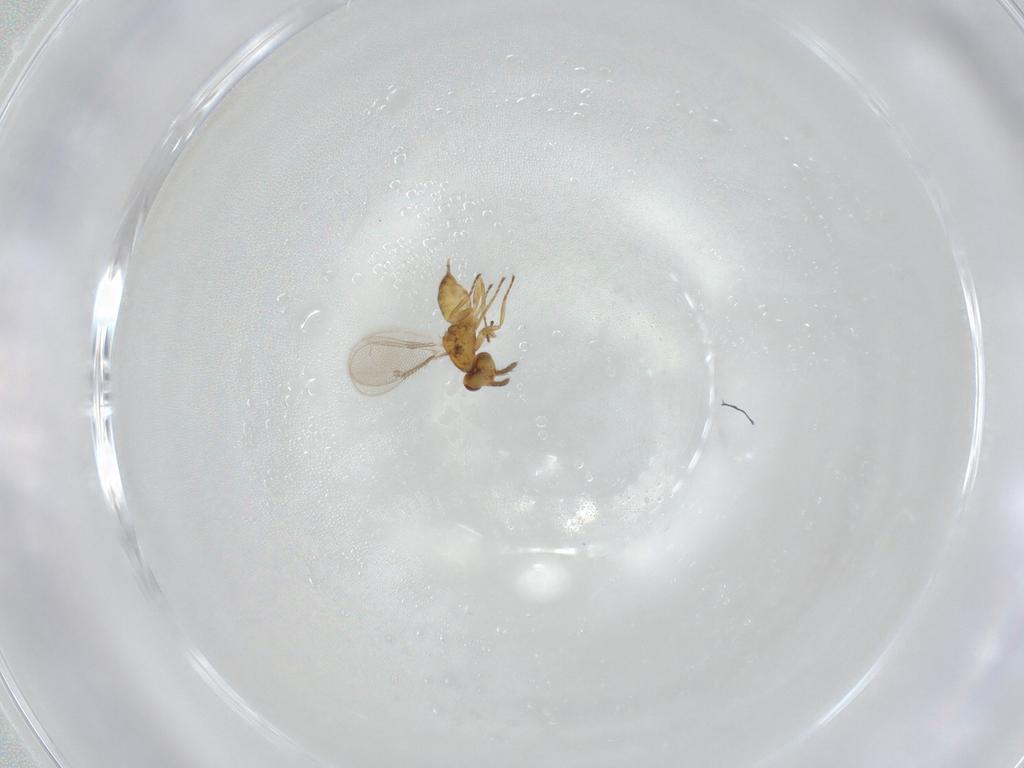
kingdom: Animalia
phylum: Arthropoda
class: Insecta
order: Hymenoptera
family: Eulophidae
